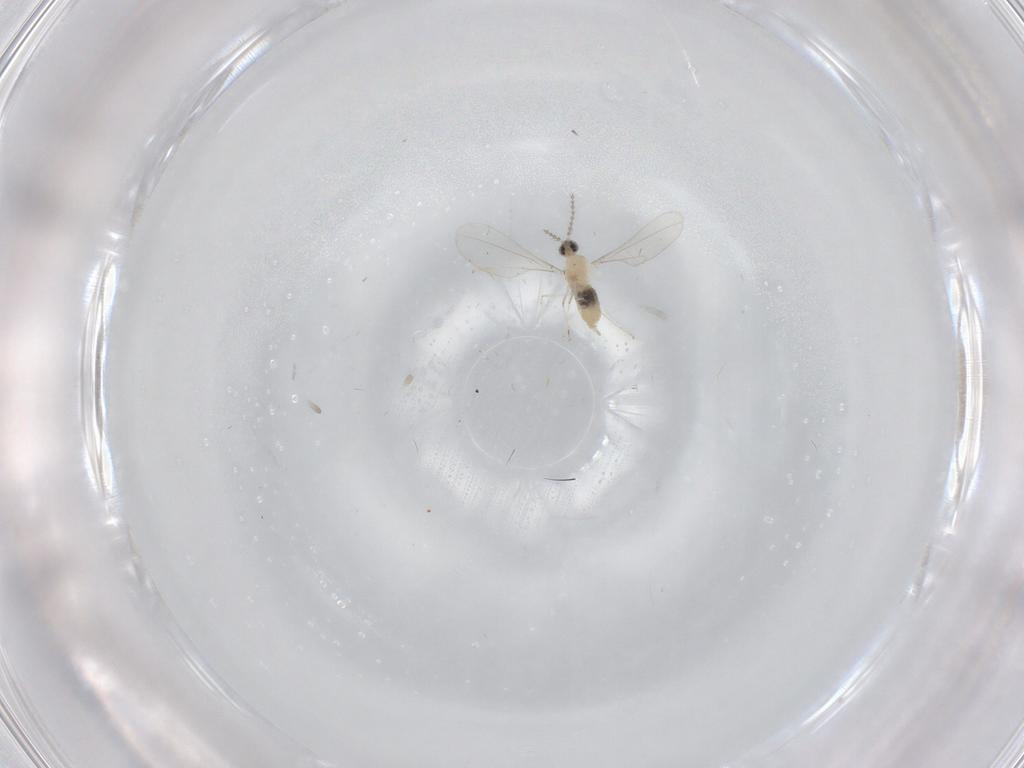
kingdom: Animalia
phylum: Arthropoda
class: Insecta
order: Diptera
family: Cecidomyiidae
